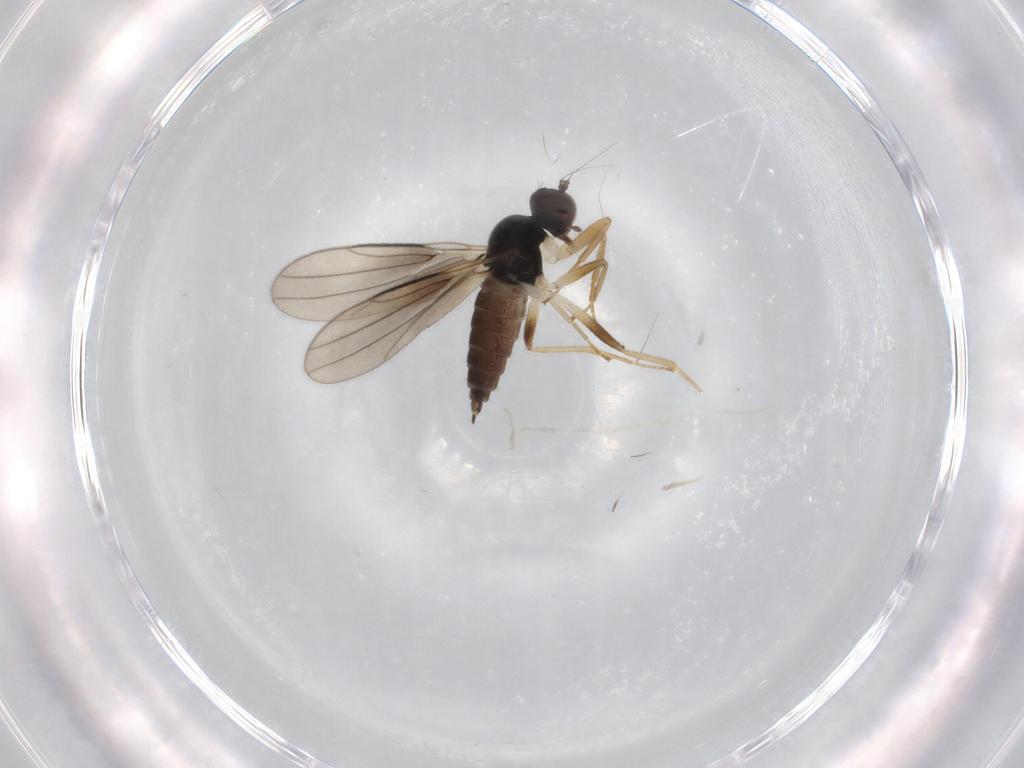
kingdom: Animalia
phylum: Arthropoda
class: Insecta
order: Diptera
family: Hybotidae
